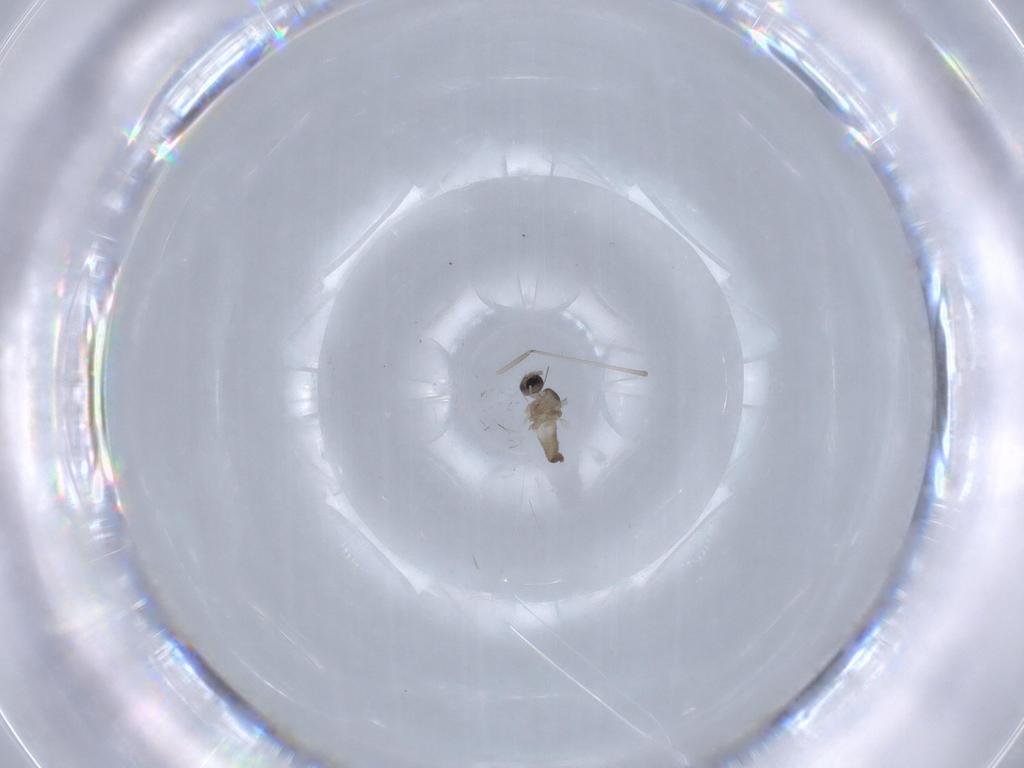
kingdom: Animalia
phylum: Arthropoda
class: Insecta
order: Diptera
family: Cecidomyiidae
